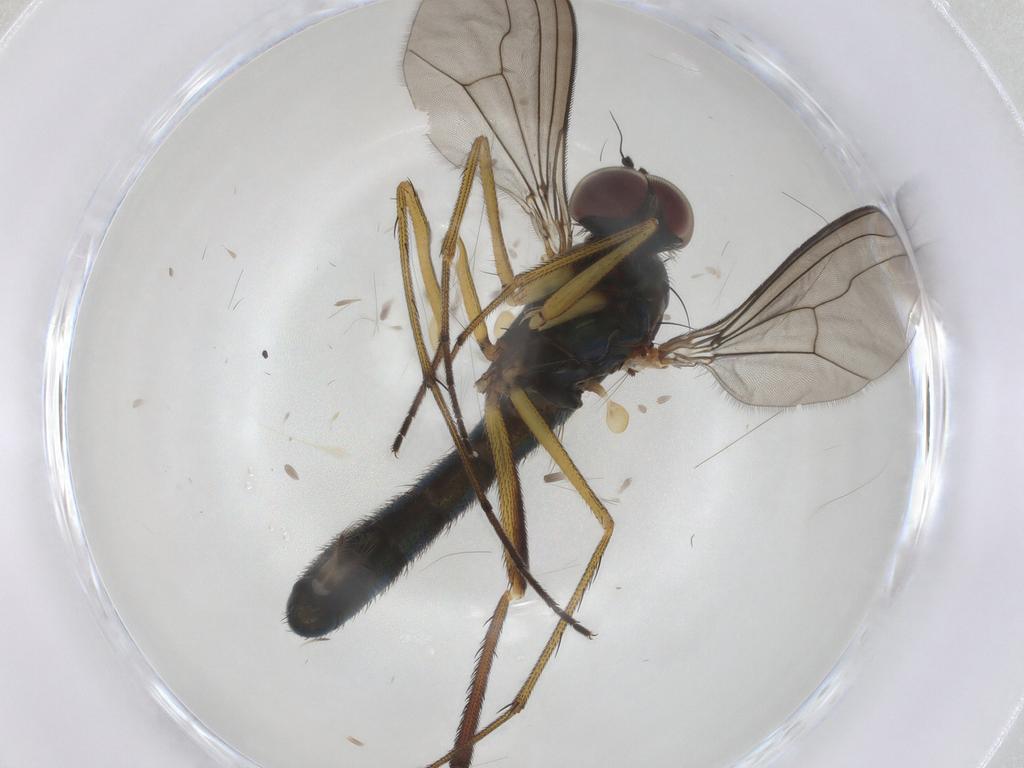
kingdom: Animalia
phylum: Arthropoda
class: Insecta
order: Diptera
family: Dolichopodidae
